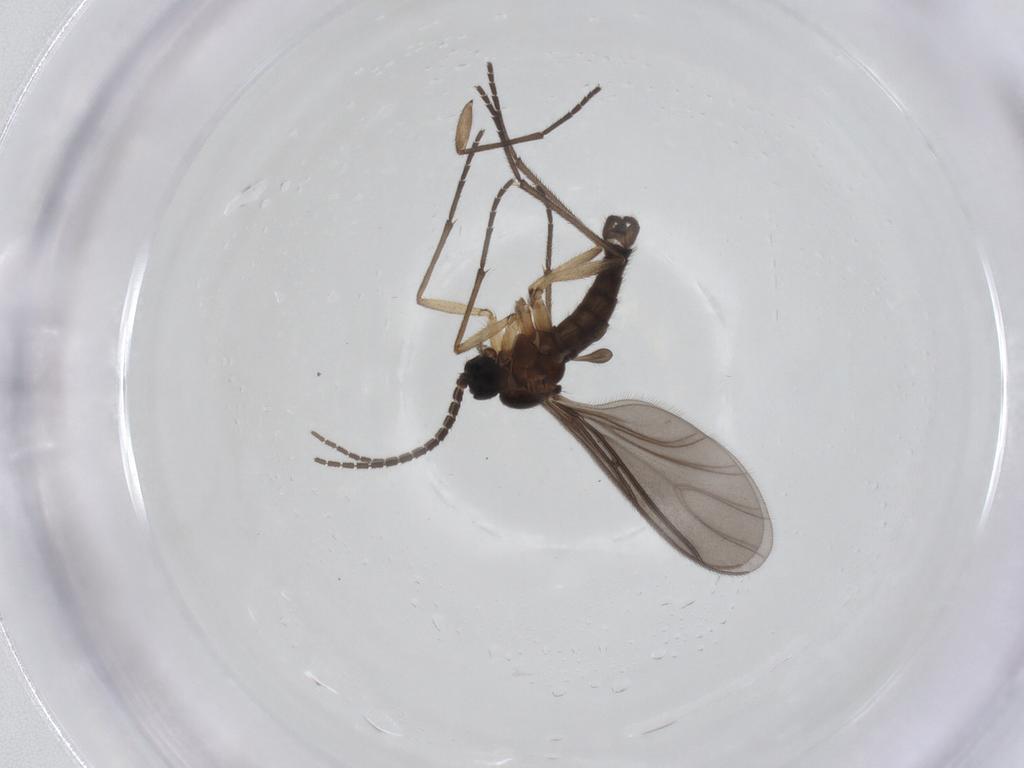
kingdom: Animalia
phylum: Arthropoda
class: Insecta
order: Diptera
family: Sciaridae
